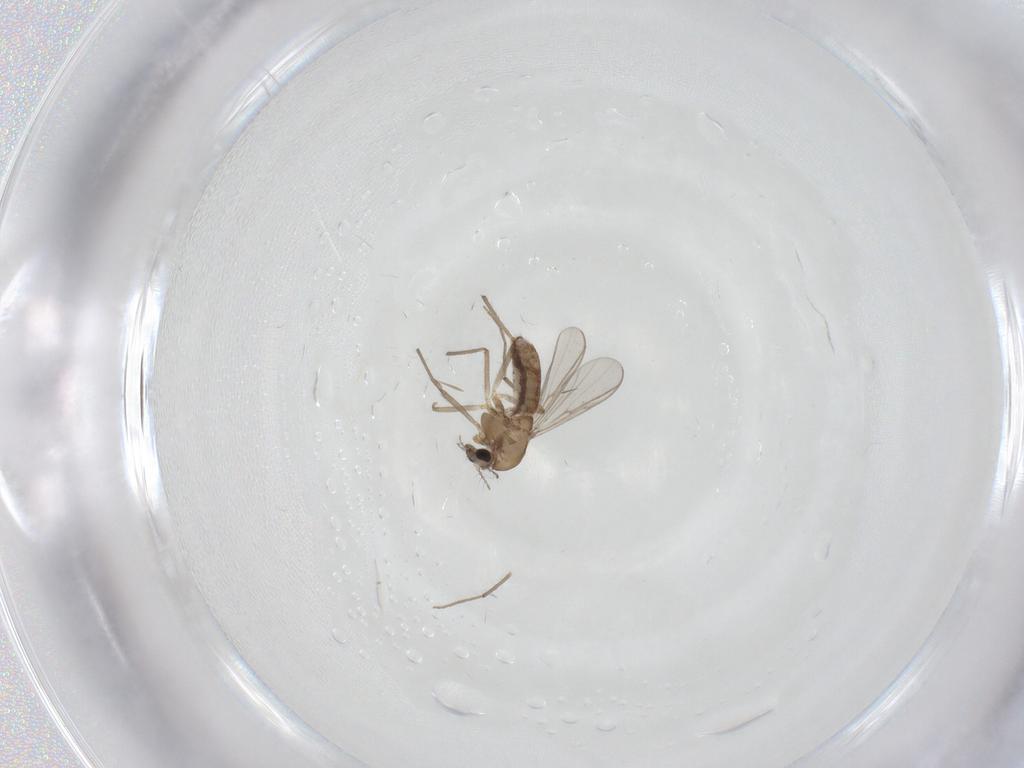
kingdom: Animalia
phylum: Arthropoda
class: Insecta
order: Diptera
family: Chironomidae
